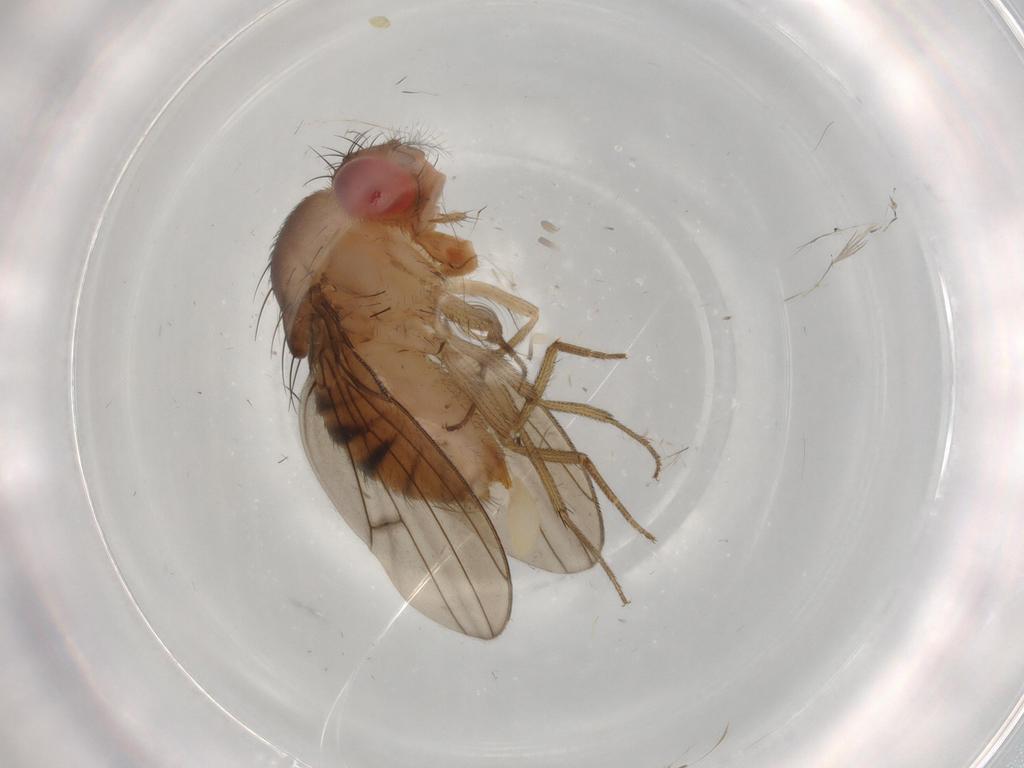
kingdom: Animalia
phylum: Arthropoda
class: Insecta
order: Diptera
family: Drosophilidae
